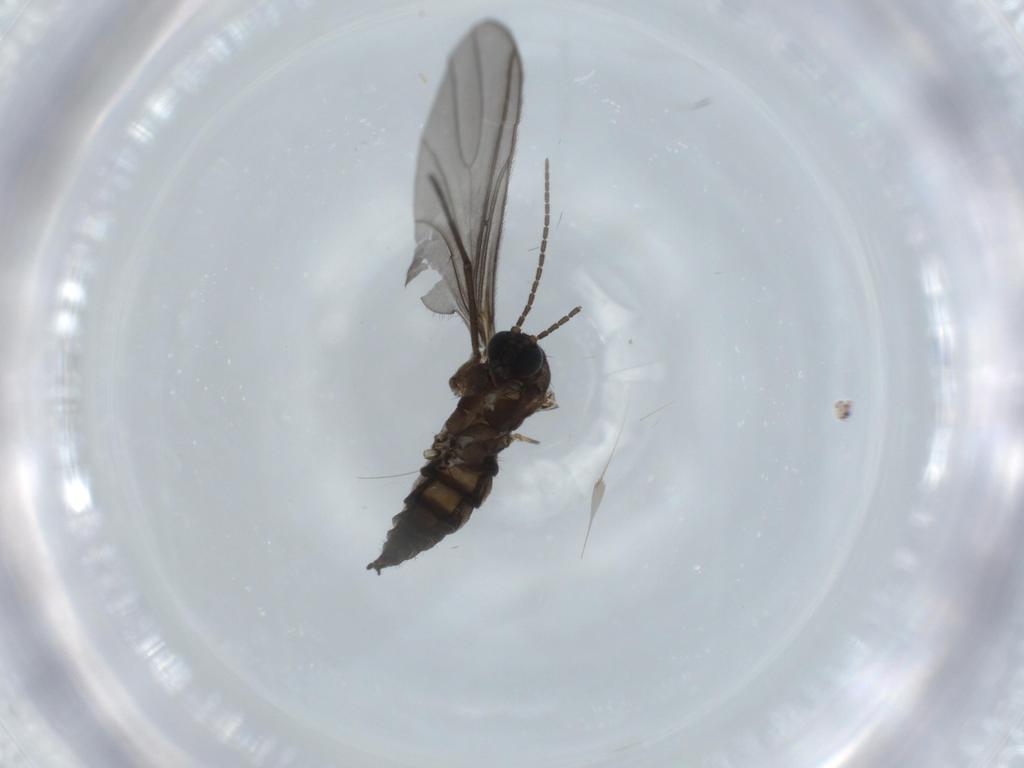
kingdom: Animalia
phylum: Arthropoda
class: Insecta
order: Diptera
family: Sciaridae
